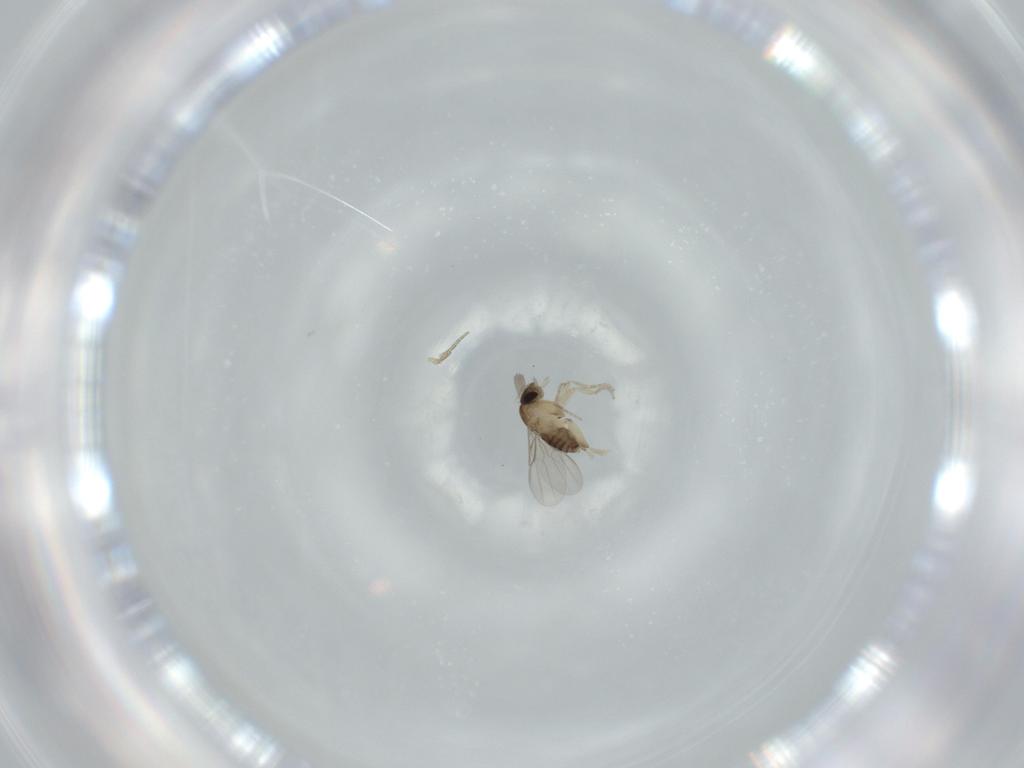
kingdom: Animalia
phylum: Arthropoda
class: Insecta
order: Diptera
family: Phoridae
